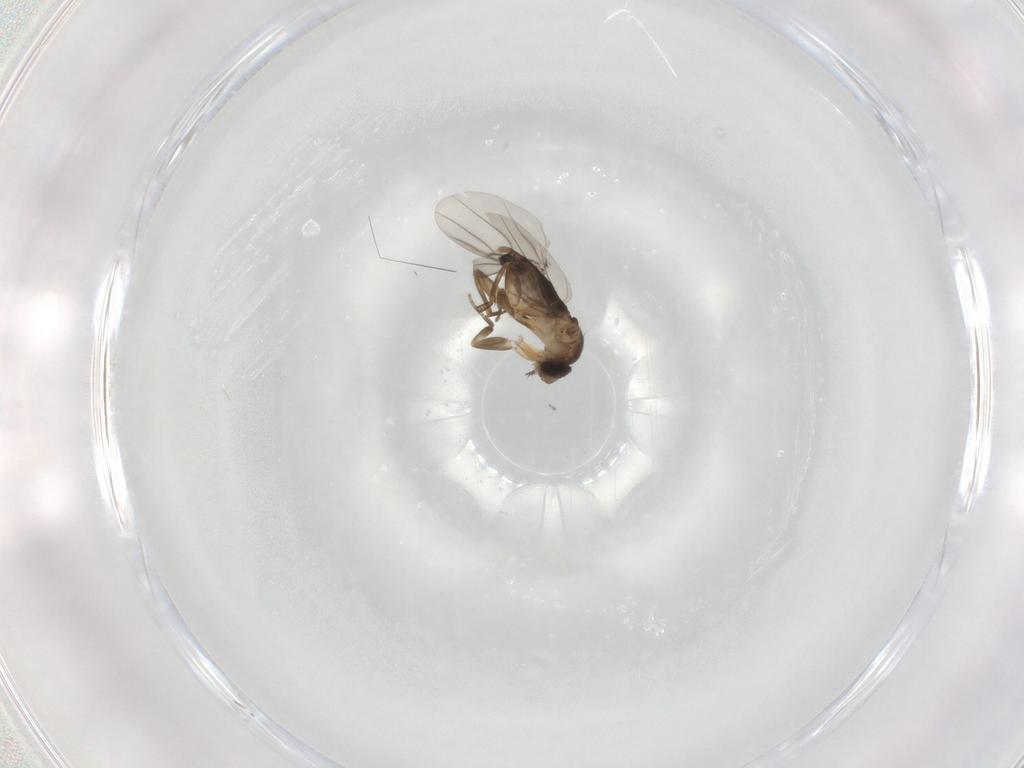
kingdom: Animalia
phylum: Arthropoda
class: Insecta
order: Diptera
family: Phoridae
